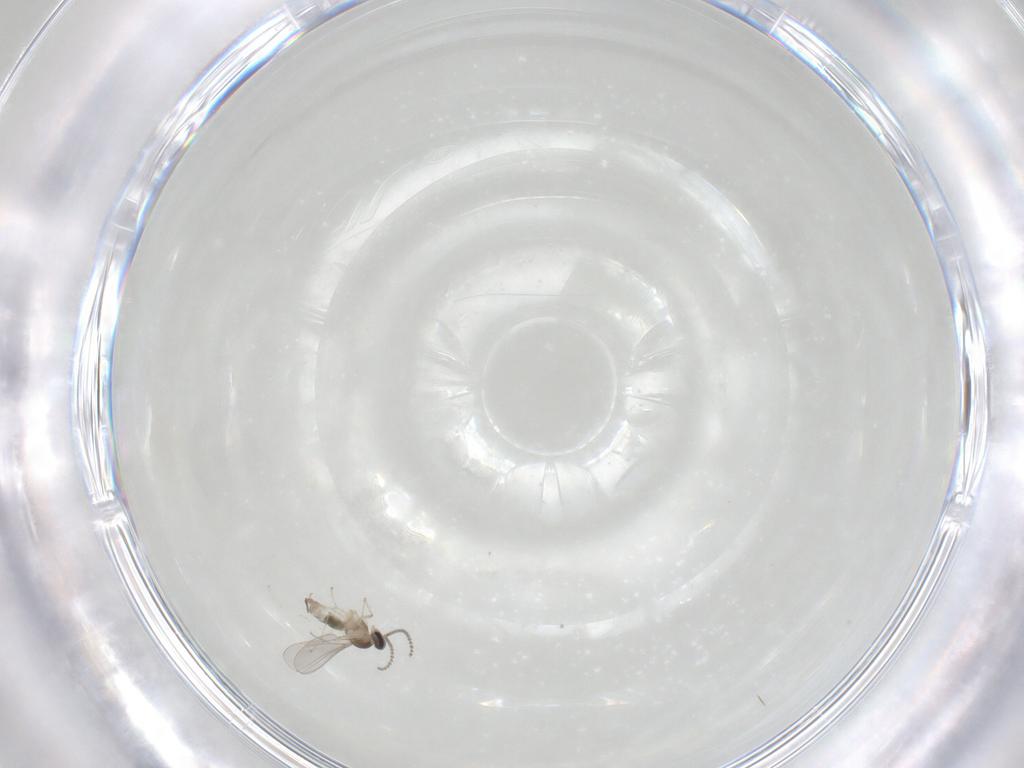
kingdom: Animalia
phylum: Arthropoda
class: Insecta
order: Diptera
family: Cecidomyiidae
